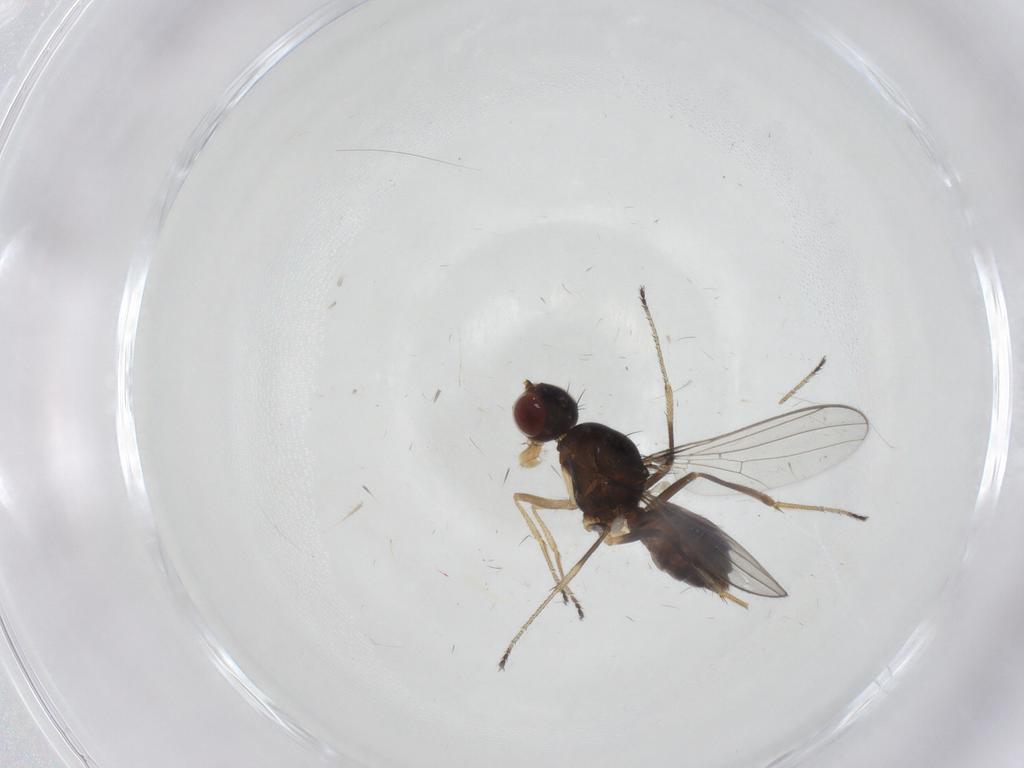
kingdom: Animalia
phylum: Arthropoda
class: Insecta
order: Diptera
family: Sepsidae
